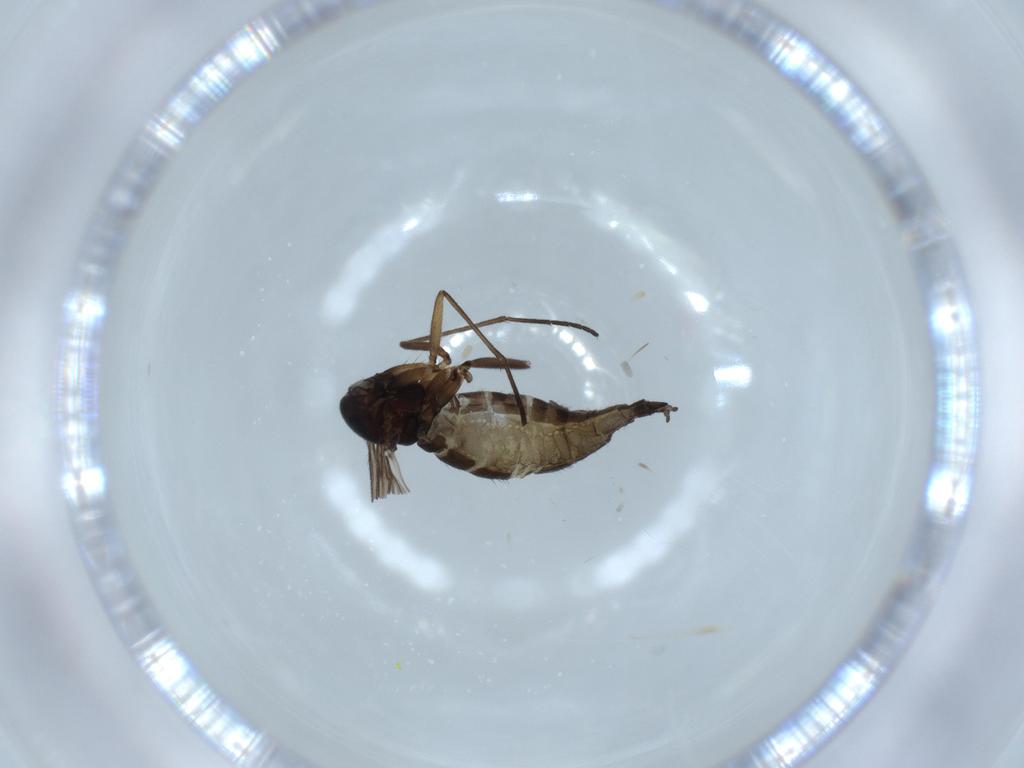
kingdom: Animalia
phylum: Arthropoda
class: Insecta
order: Diptera
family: Sciaridae
